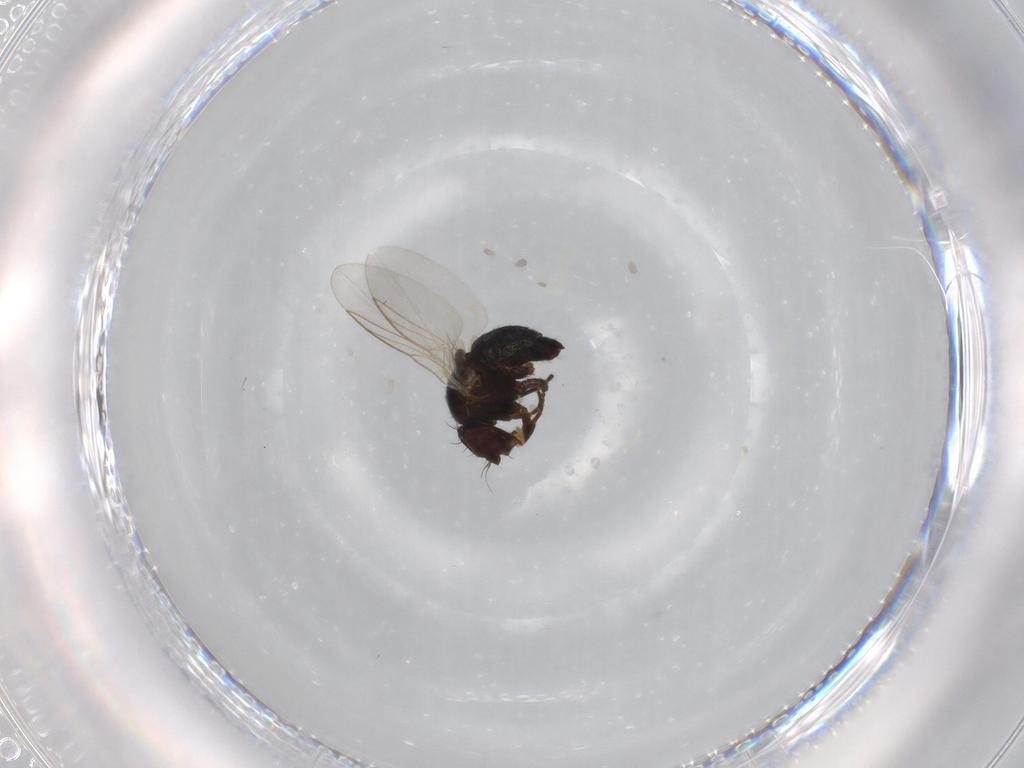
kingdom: Animalia
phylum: Arthropoda
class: Insecta
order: Diptera
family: Agromyzidae
